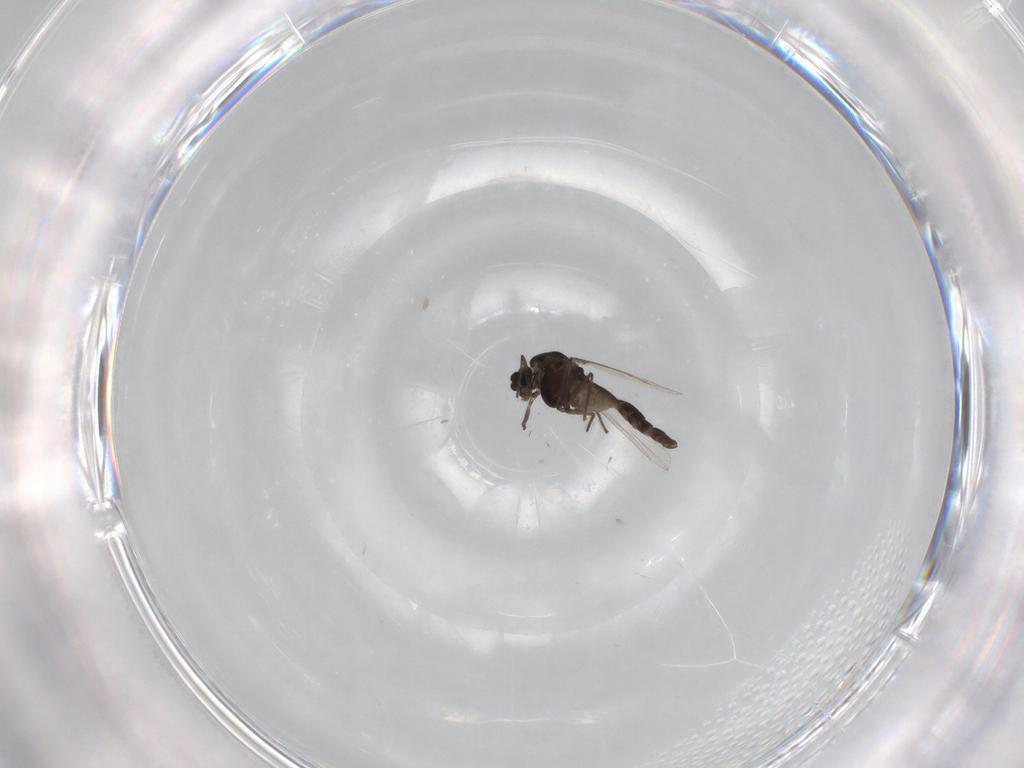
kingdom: Animalia
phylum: Arthropoda
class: Insecta
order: Diptera
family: Chironomidae
